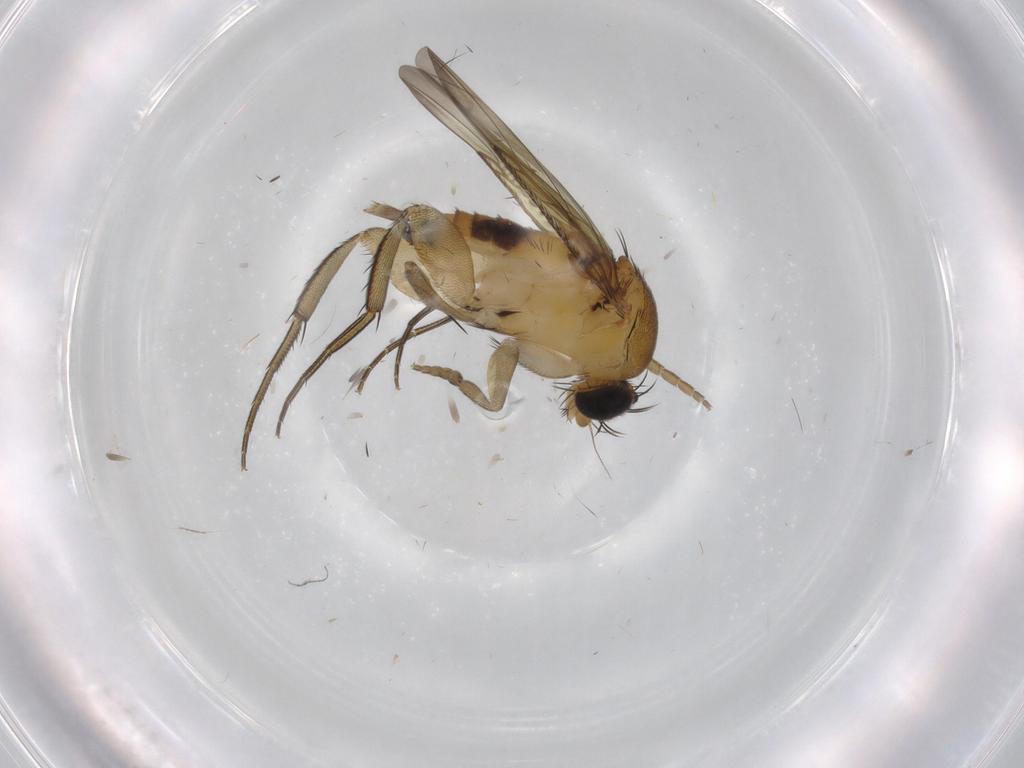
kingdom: Animalia
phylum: Arthropoda
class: Insecta
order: Diptera
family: Phoridae
